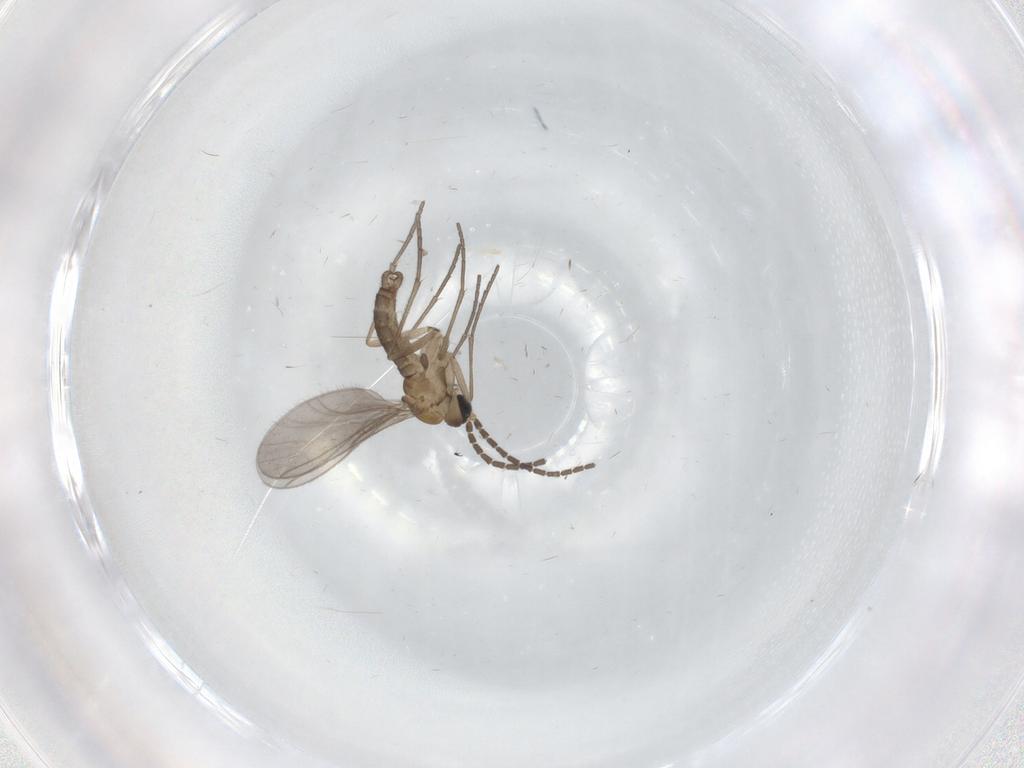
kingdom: Animalia
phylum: Arthropoda
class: Insecta
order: Diptera
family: Sciaridae
